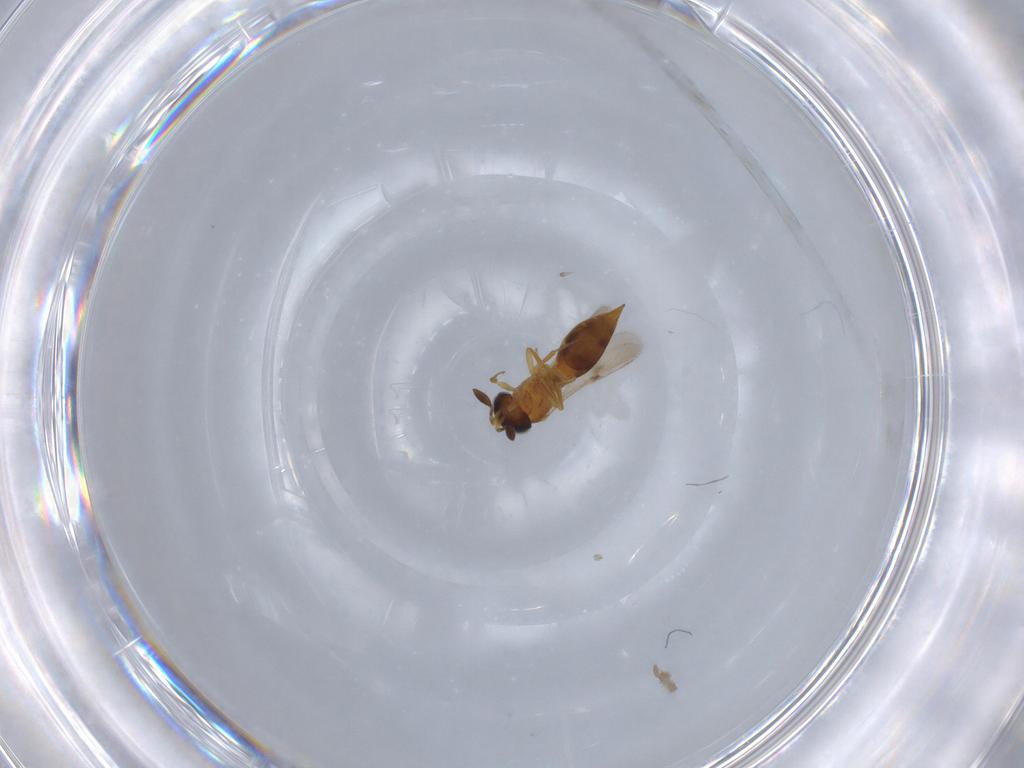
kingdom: Animalia
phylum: Arthropoda
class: Insecta
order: Hymenoptera
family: Scelionidae
